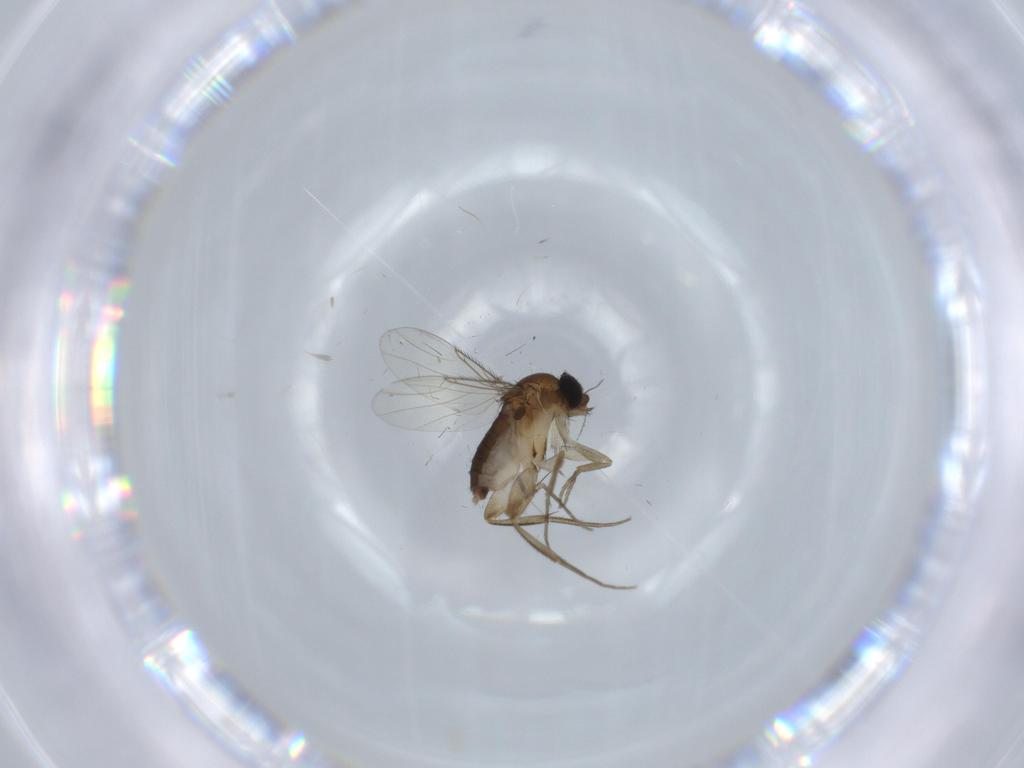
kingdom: Animalia
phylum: Arthropoda
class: Insecta
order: Diptera
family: Phoridae
